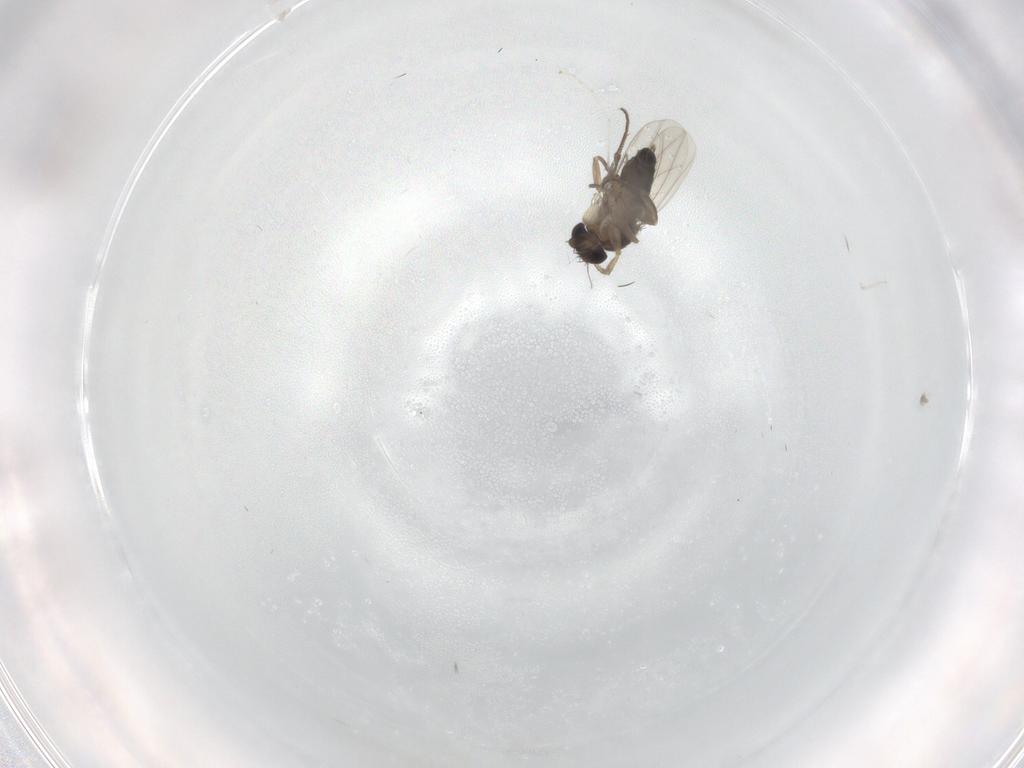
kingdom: Animalia
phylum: Arthropoda
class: Insecta
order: Diptera
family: Phoridae
